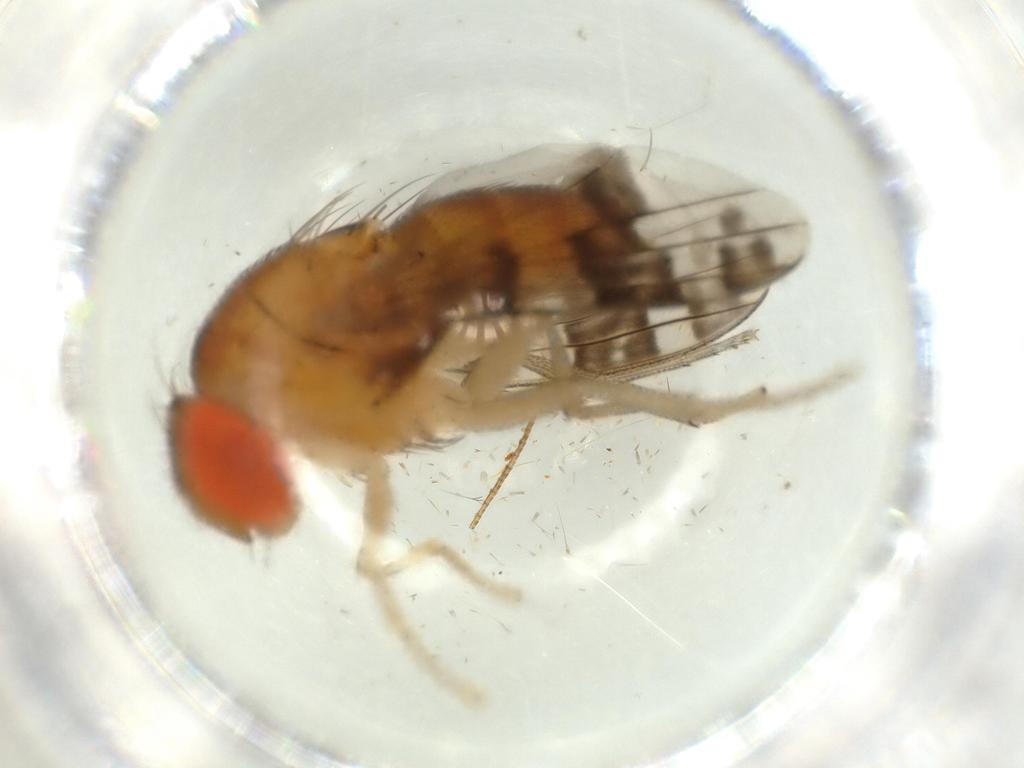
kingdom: Animalia
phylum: Arthropoda
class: Insecta
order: Diptera
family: Drosophilidae
